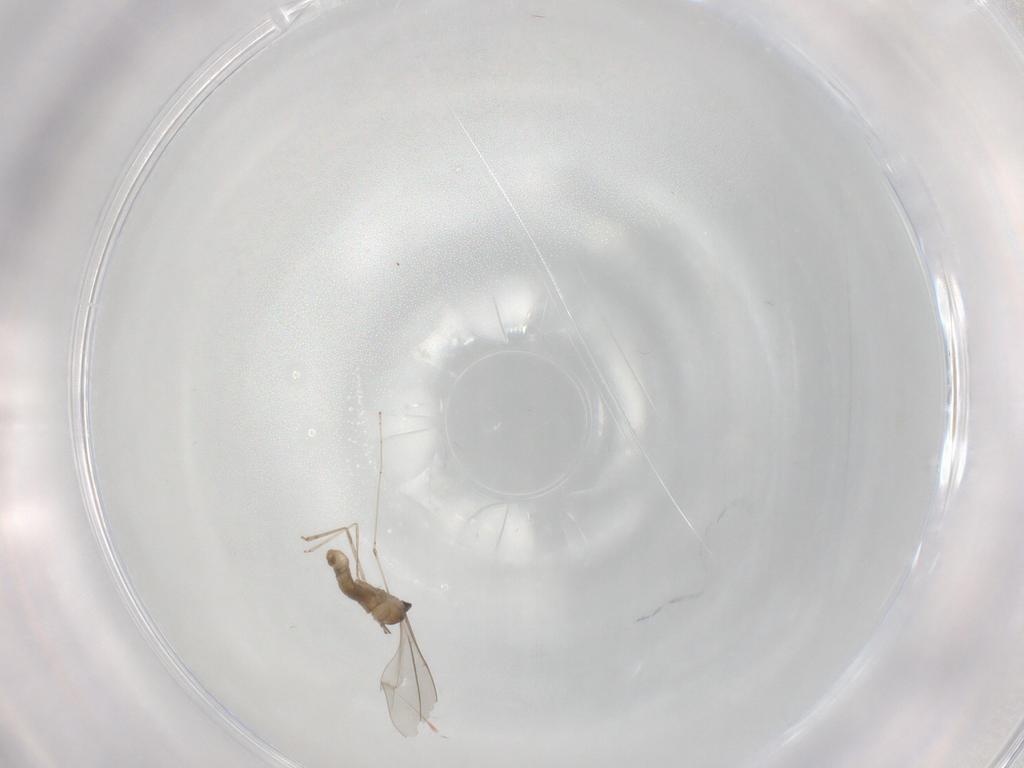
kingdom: Animalia
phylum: Arthropoda
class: Insecta
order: Diptera
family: Cecidomyiidae
